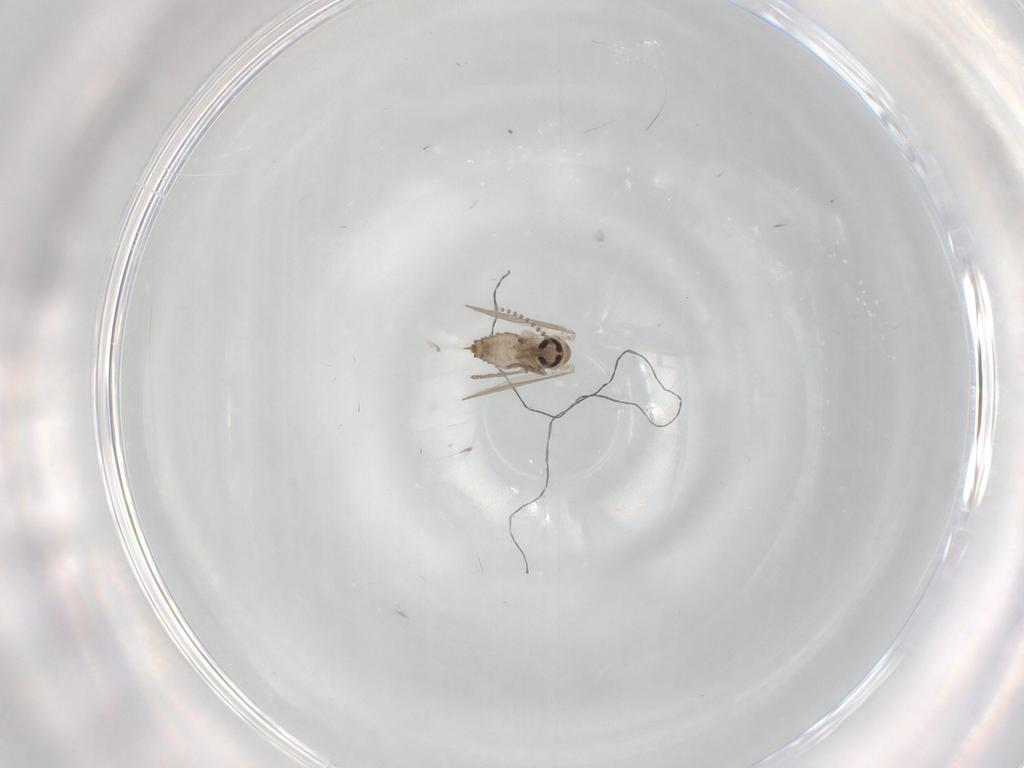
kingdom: Animalia
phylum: Arthropoda
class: Insecta
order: Diptera
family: Psychodidae
